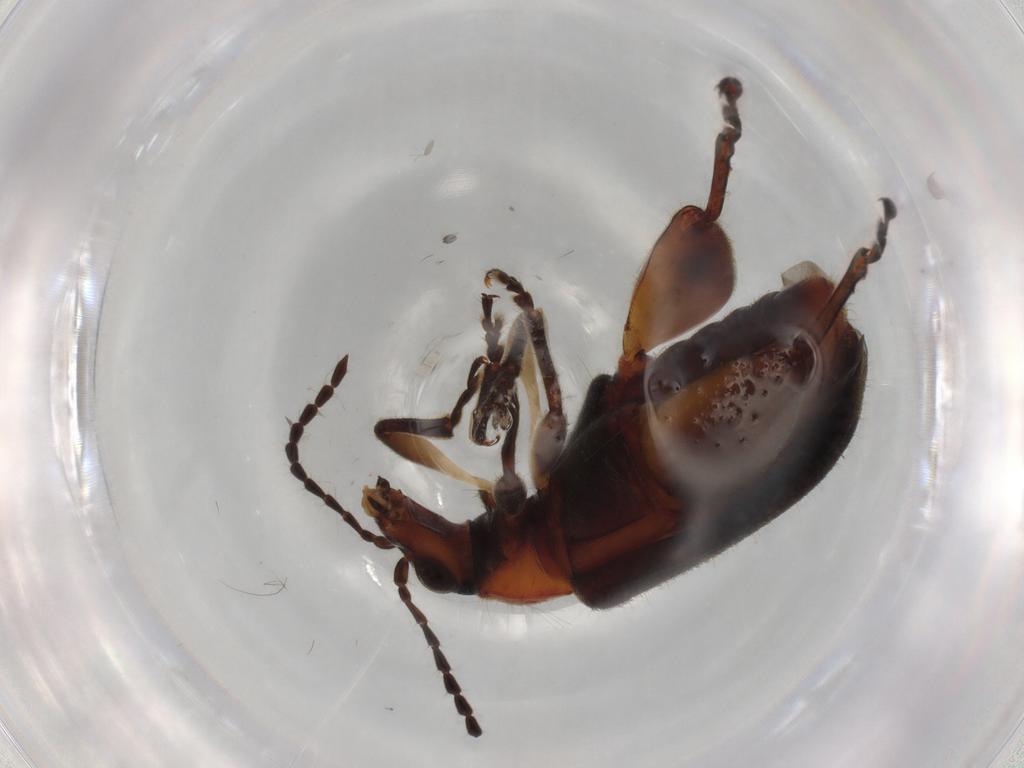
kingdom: Animalia
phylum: Arthropoda
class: Insecta
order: Coleoptera
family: Chrysomelidae
